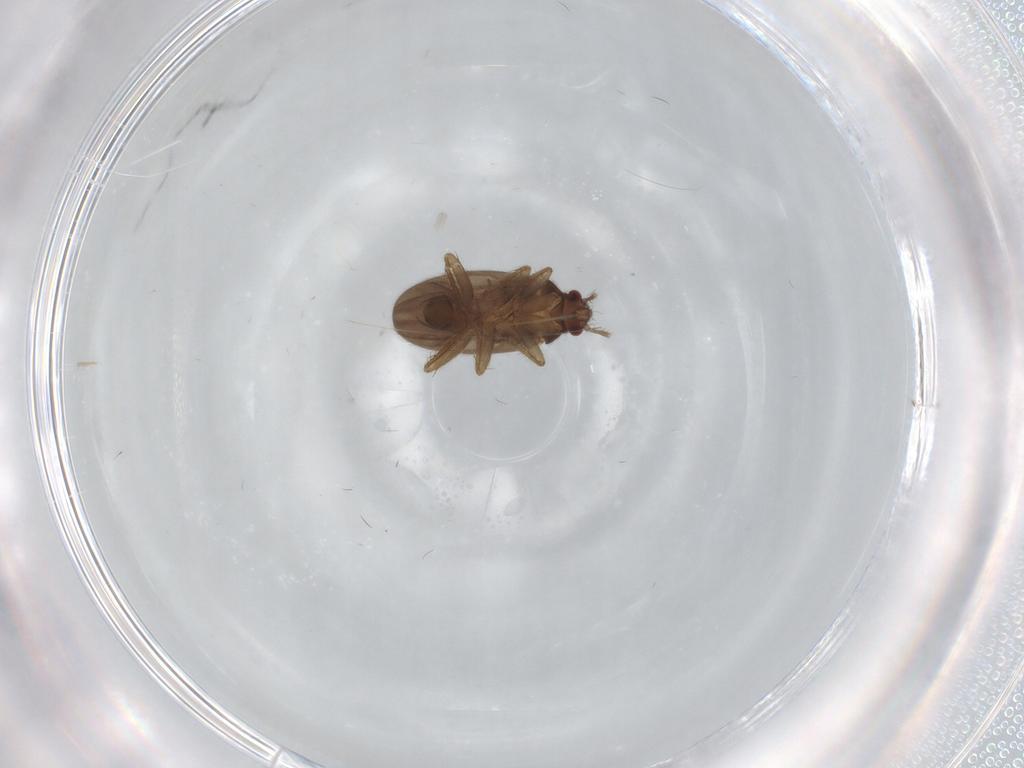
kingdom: Animalia
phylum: Arthropoda
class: Insecta
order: Hemiptera
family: Ceratocombidae
